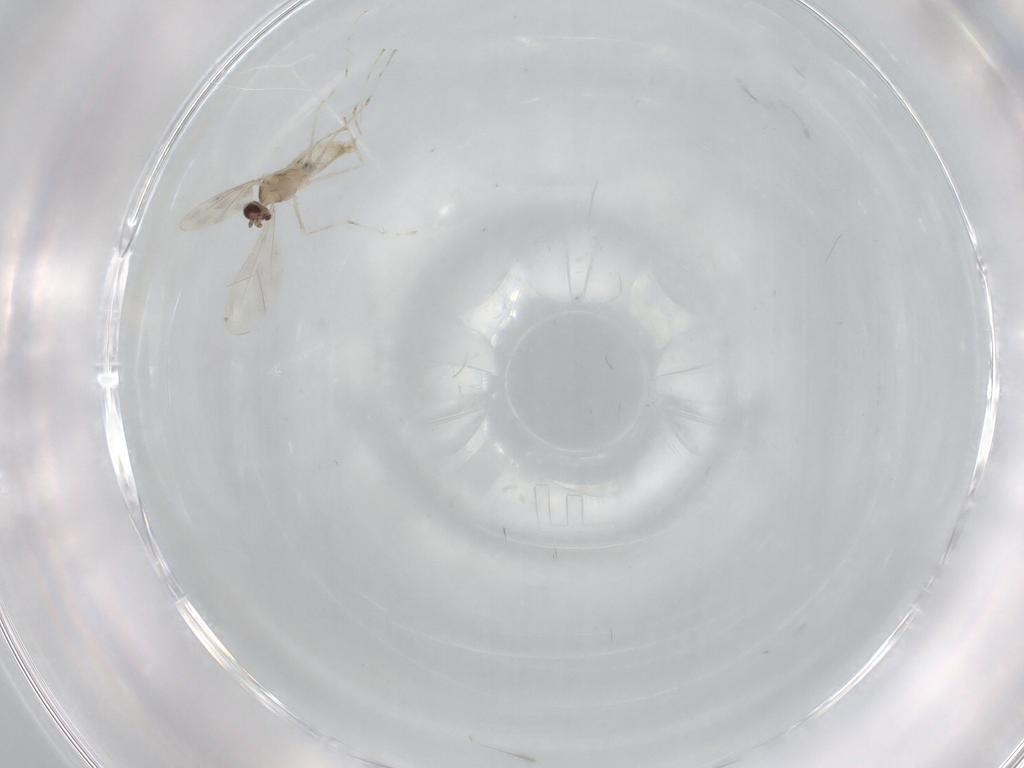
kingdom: Animalia
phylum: Arthropoda
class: Insecta
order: Diptera
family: Cecidomyiidae
